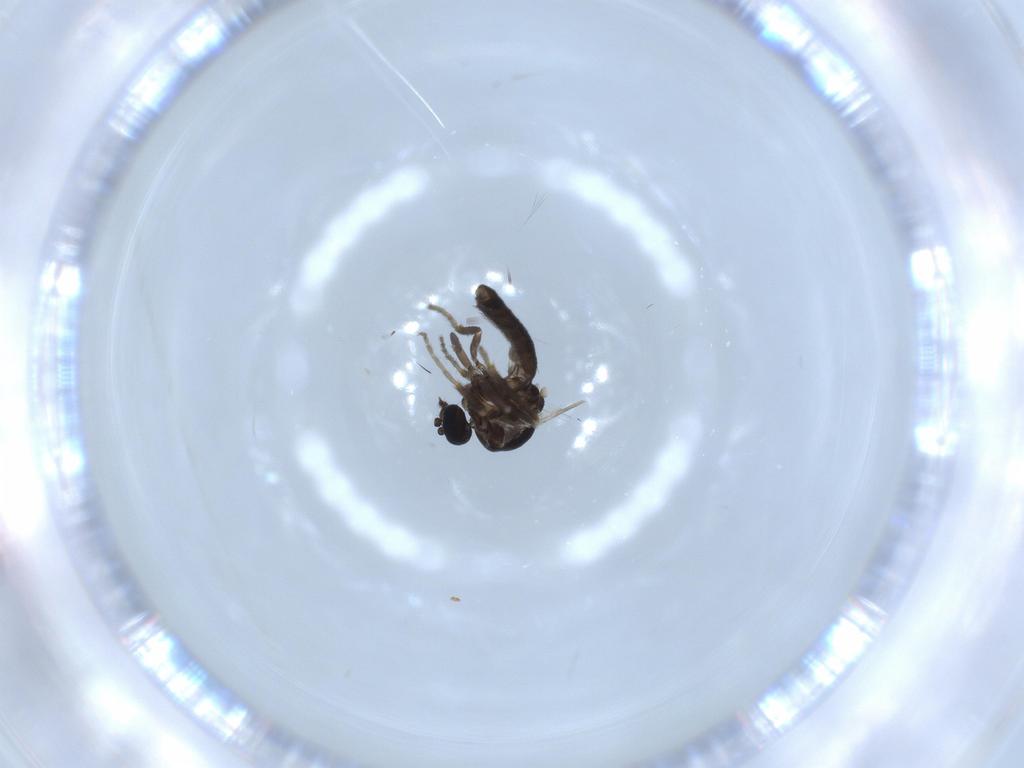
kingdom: Animalia
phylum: Arthropoda
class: Insecta
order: Diptera
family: Ceratopogonidae
